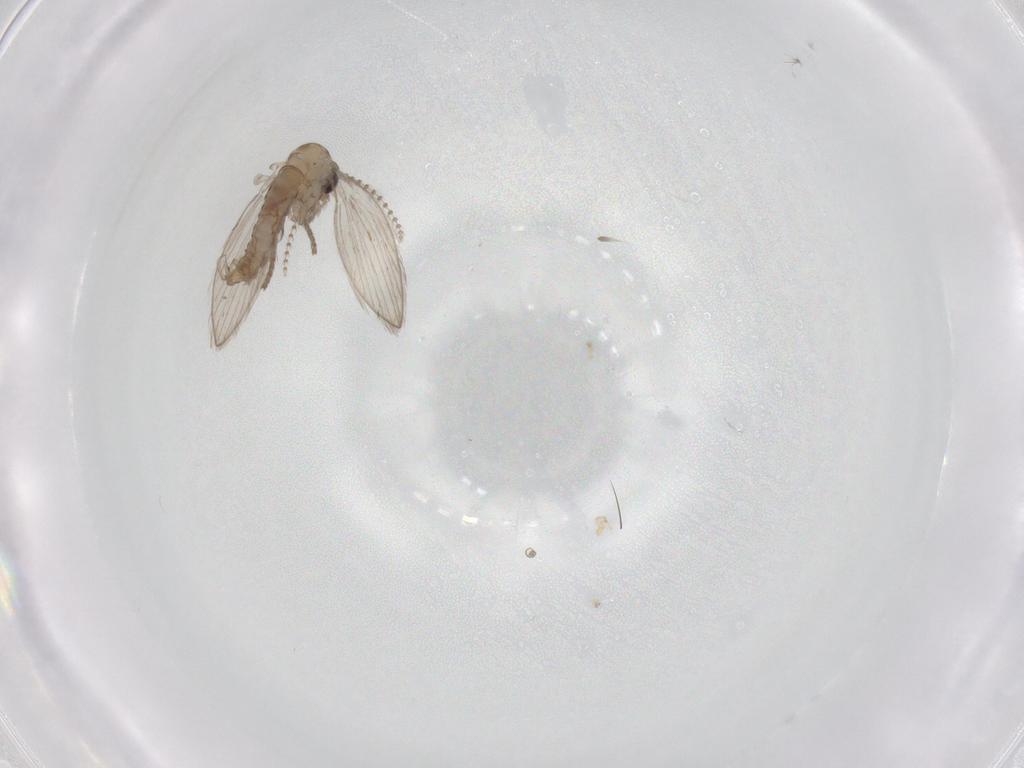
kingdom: Animalia
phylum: Arthropoda
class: Insecta
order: Diptera
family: Psychodidae
